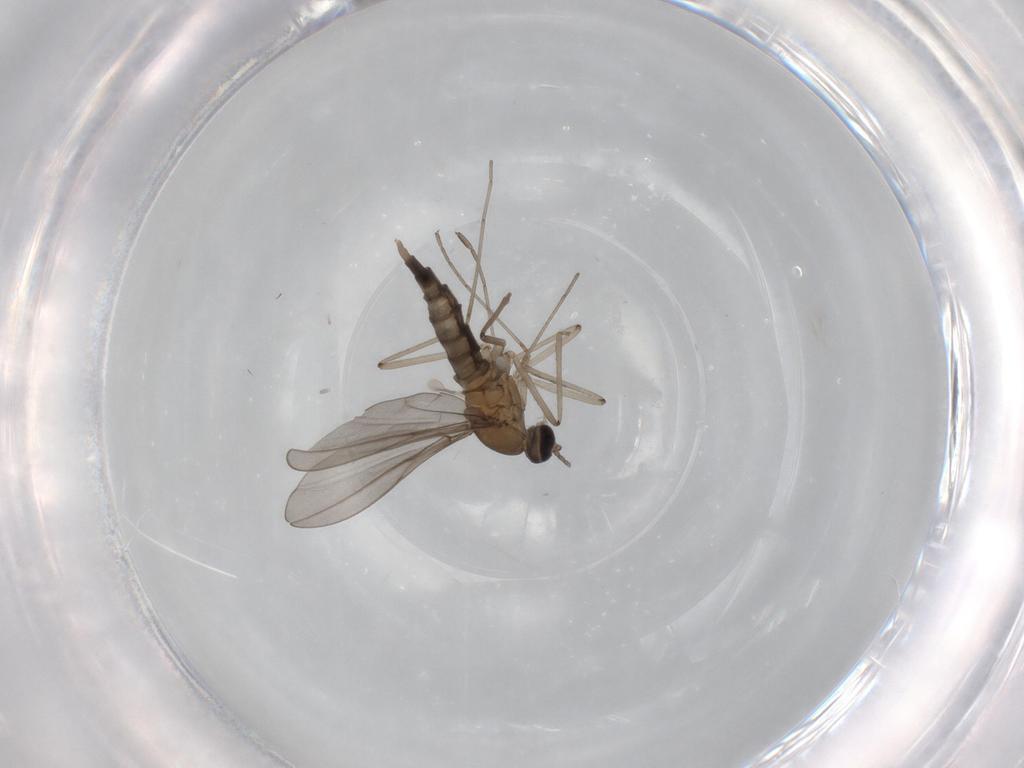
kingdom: Animalia
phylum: Arthropoda
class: Insecta
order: Diptera
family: Cecidomyiidae
